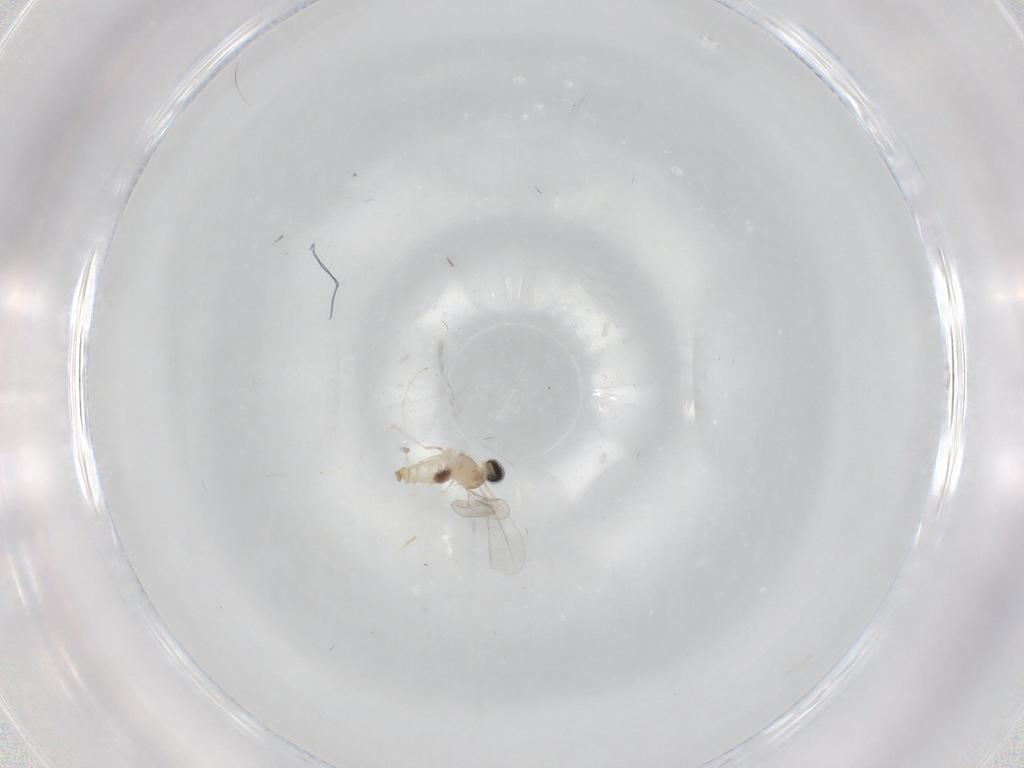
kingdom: Animalia
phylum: Arthropoda
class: Insecta
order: Diptera
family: Cecidomyiidae
